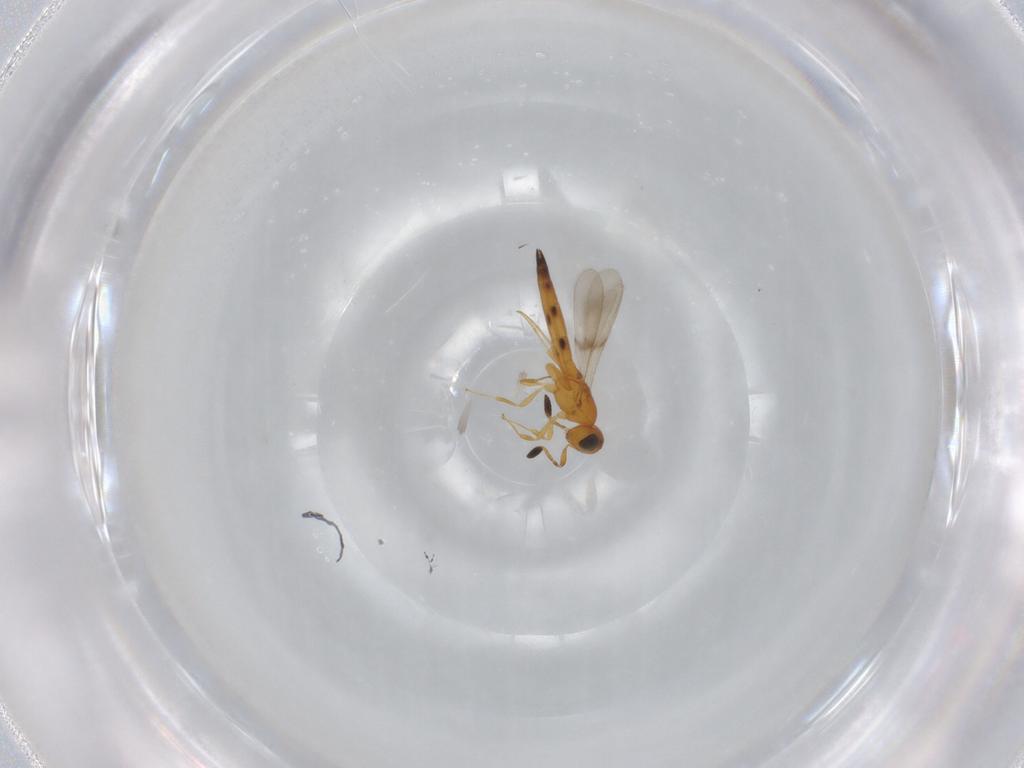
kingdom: Animalia
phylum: Arthropoda
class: Insecta
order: Hymenoptera
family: Scelionidae
